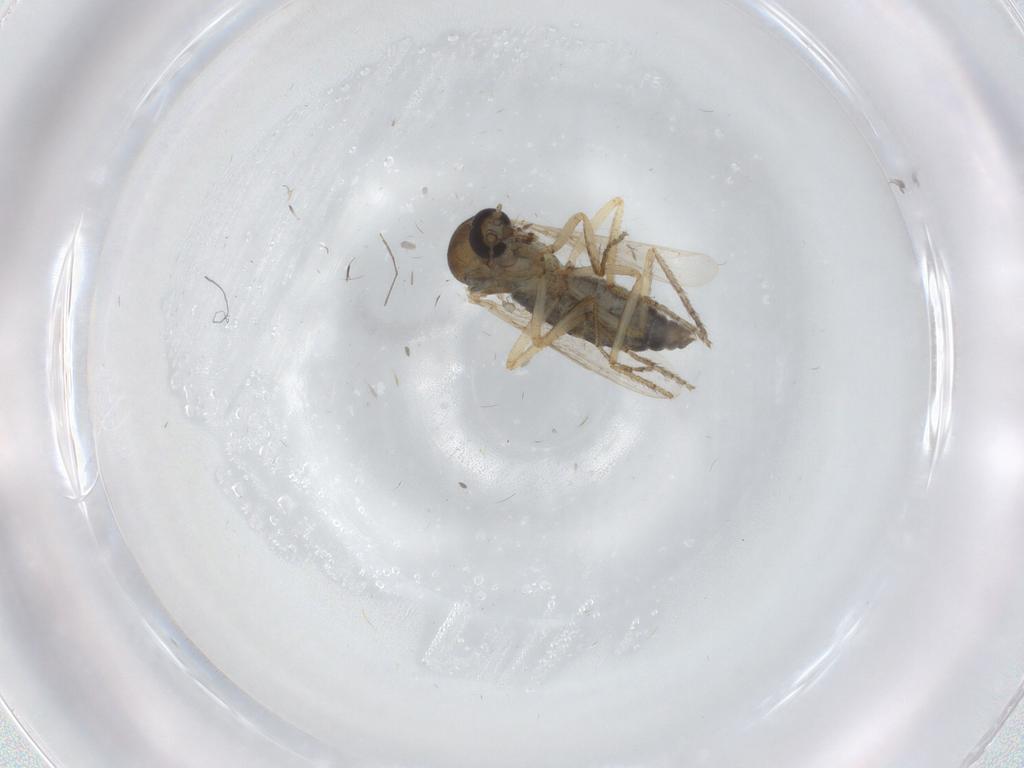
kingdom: Animalia
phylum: Arthropoda
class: Insecta
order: Diptera
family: Ceratopogonidae
